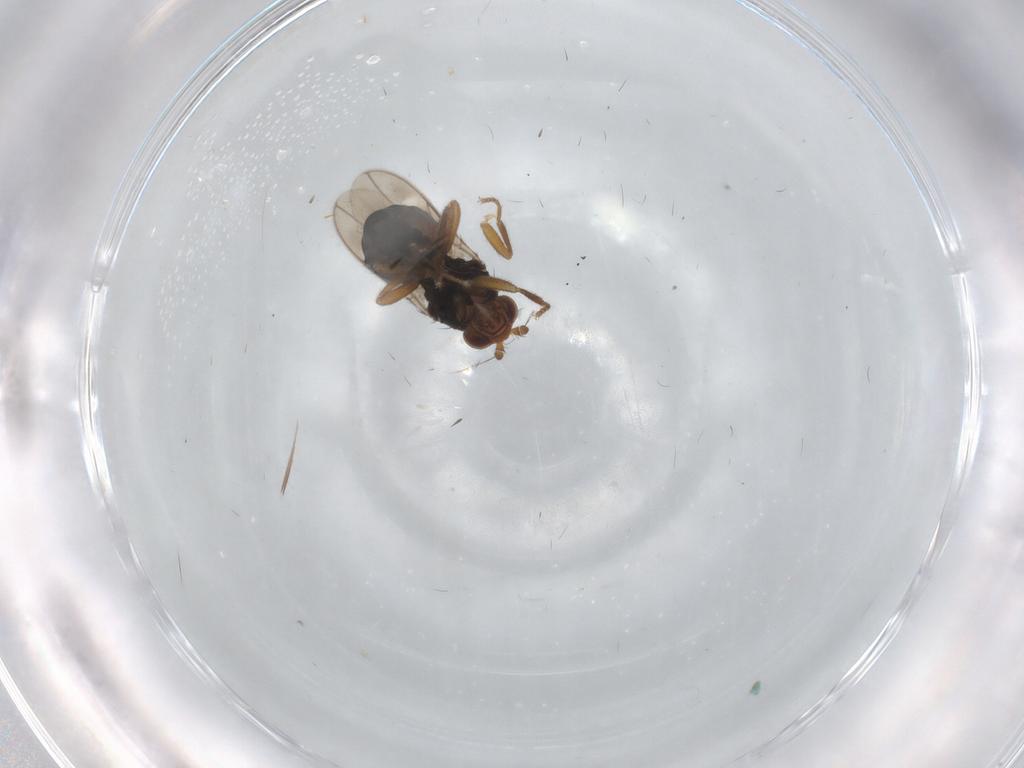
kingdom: Animalia
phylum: Arthropoda
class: Insecta
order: Diptera
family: Sphaeroceridae
